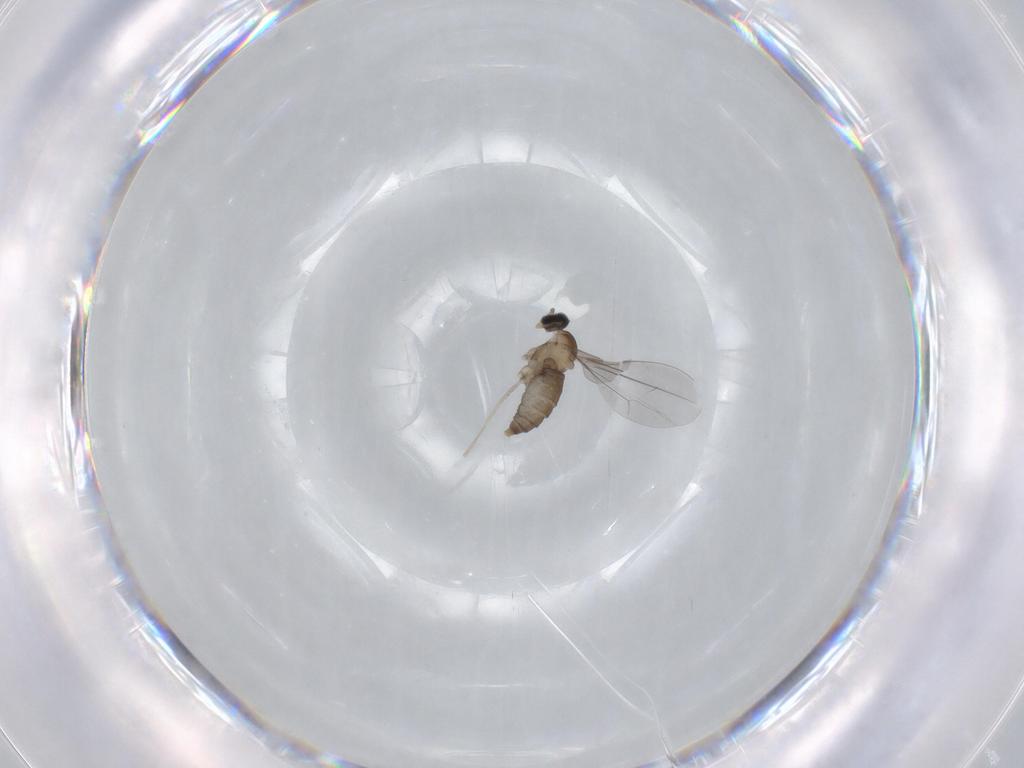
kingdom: Animalia
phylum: Arthropoda
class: Insecta
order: Diptera
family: Cecidomyiidae
